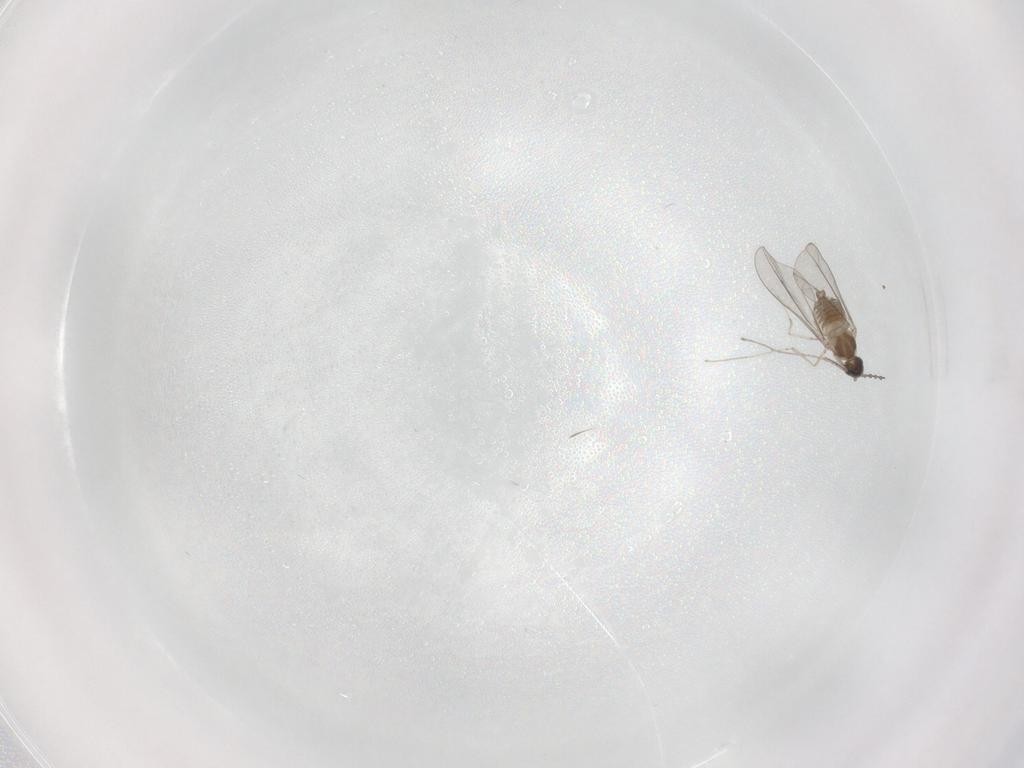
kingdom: Animalia
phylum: Arthropoda
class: Insecta
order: Diptera
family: Cecidomyiidae
